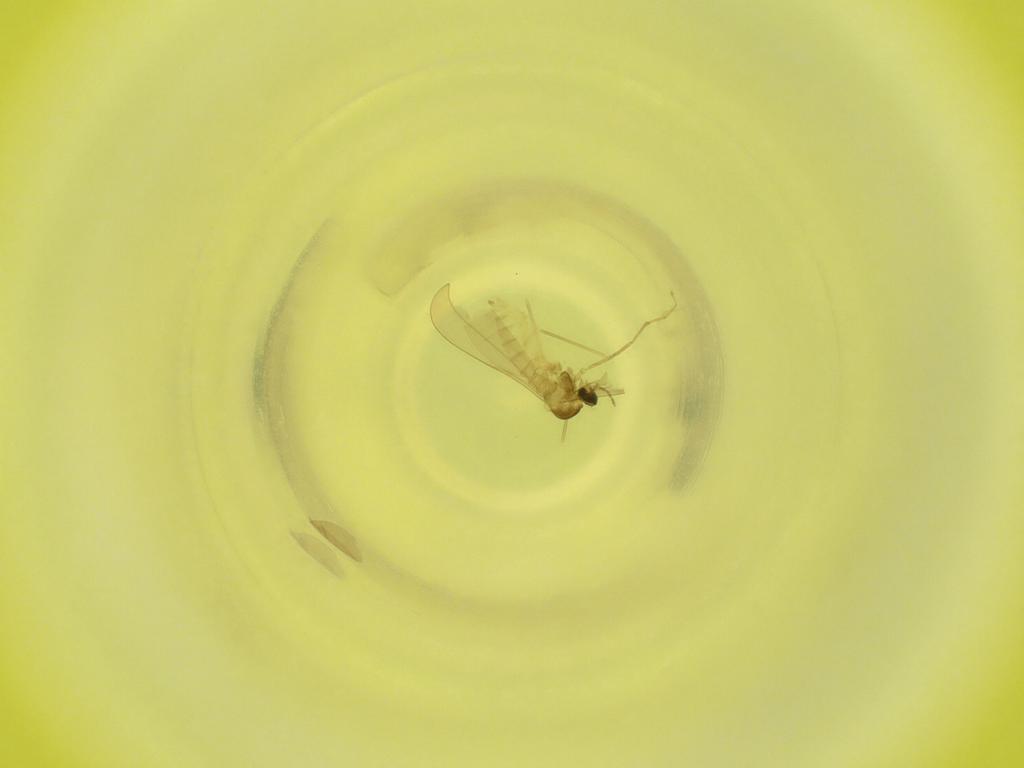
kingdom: Animalia
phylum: Arthropoda
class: Insecta
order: Diptera
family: Cecidomyiidae
